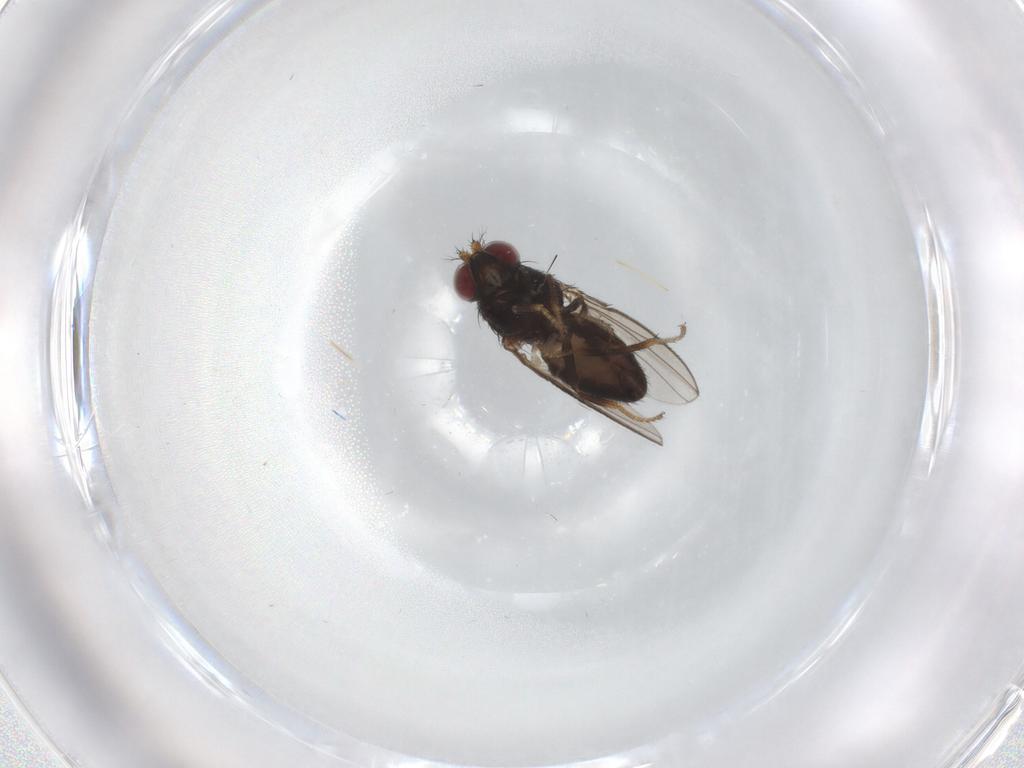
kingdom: Animalia
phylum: Arthropoda
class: Insecta
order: Diptera
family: Ephydridae
